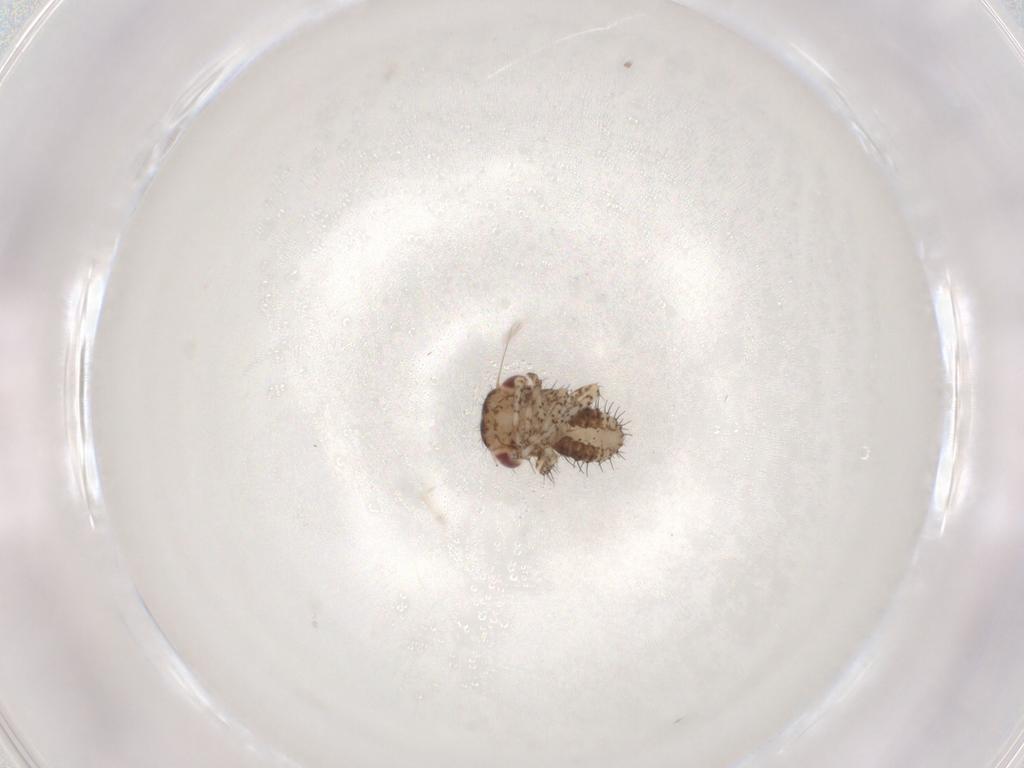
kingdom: Animalia
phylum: Arthropoda
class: Insecta
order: Hemiptera
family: Cicadellidae
